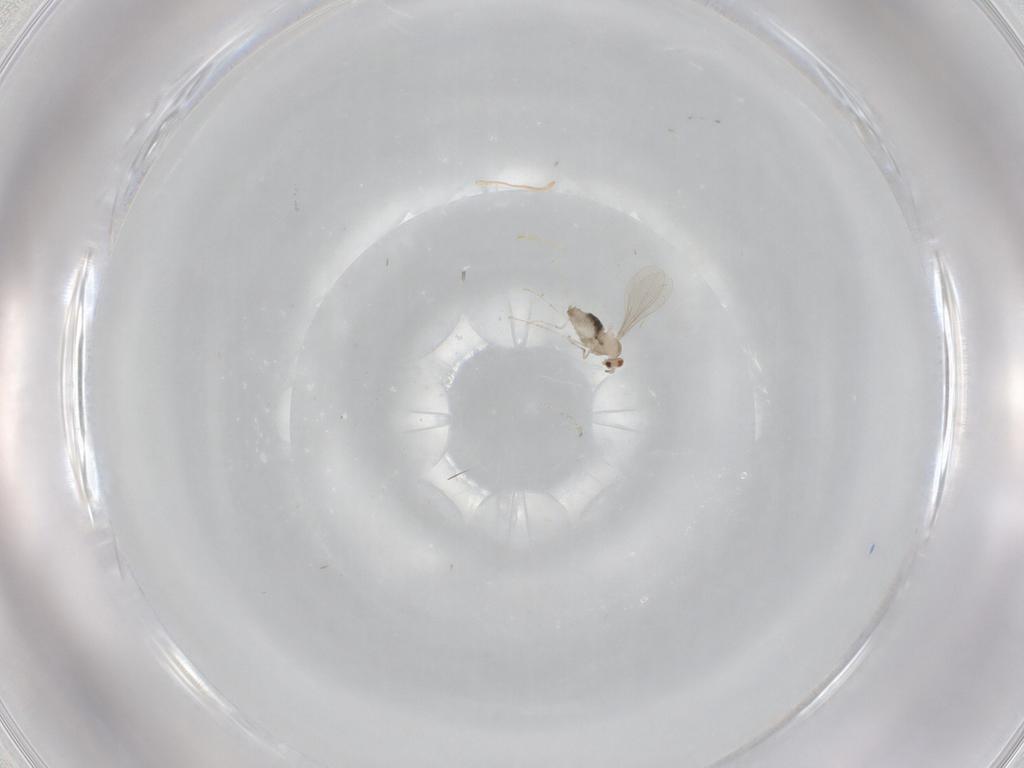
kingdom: Animalia
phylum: Arthropoda
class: Insecta
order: Diptera
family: Cecidomyiidae
